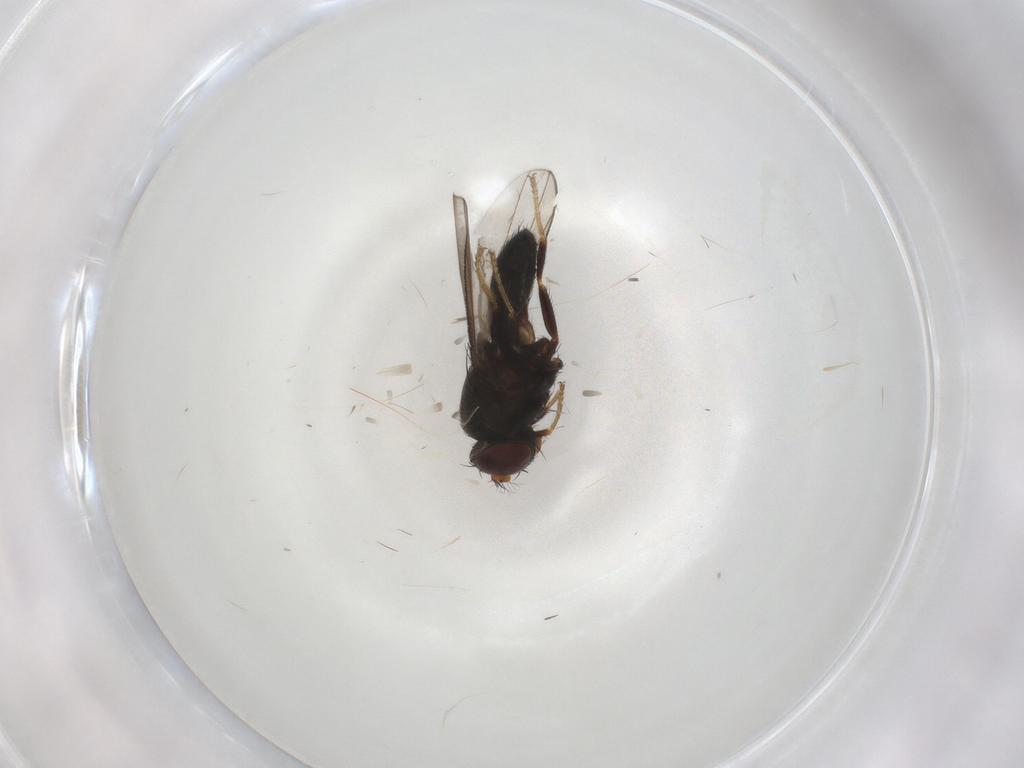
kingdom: Animalia
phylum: Arthropoda
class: Insecta
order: Diptera
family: Ephydridae
